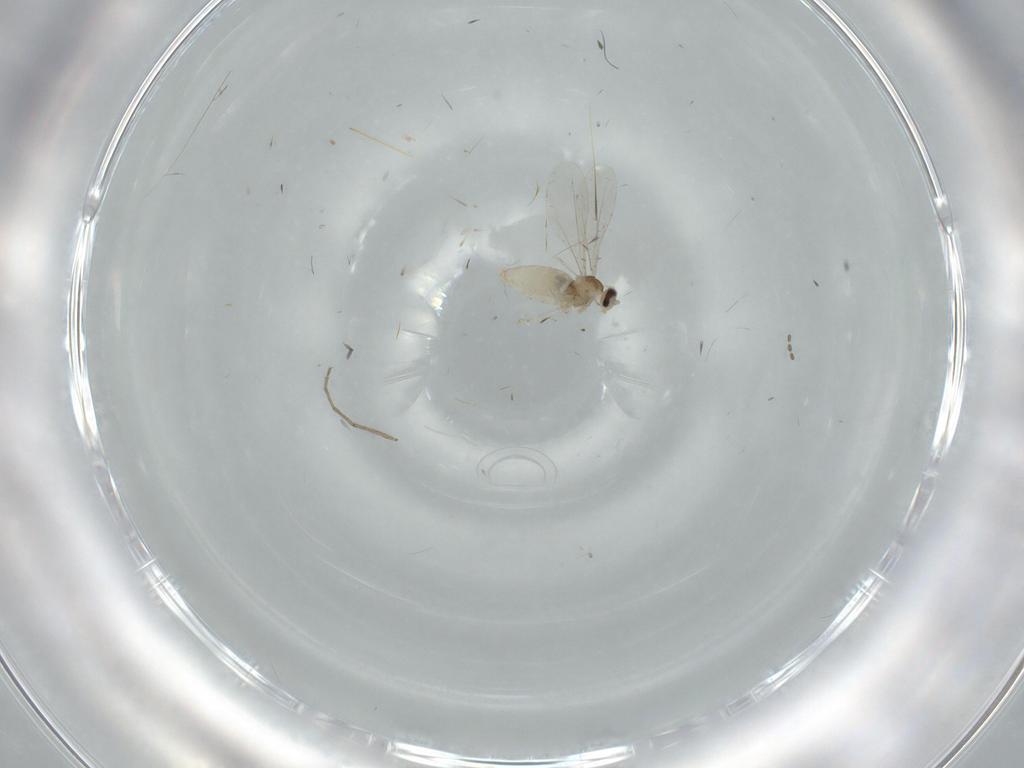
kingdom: Animalia
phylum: Arthropoda
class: Insecta
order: Diptera
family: Cecidomyiidae
